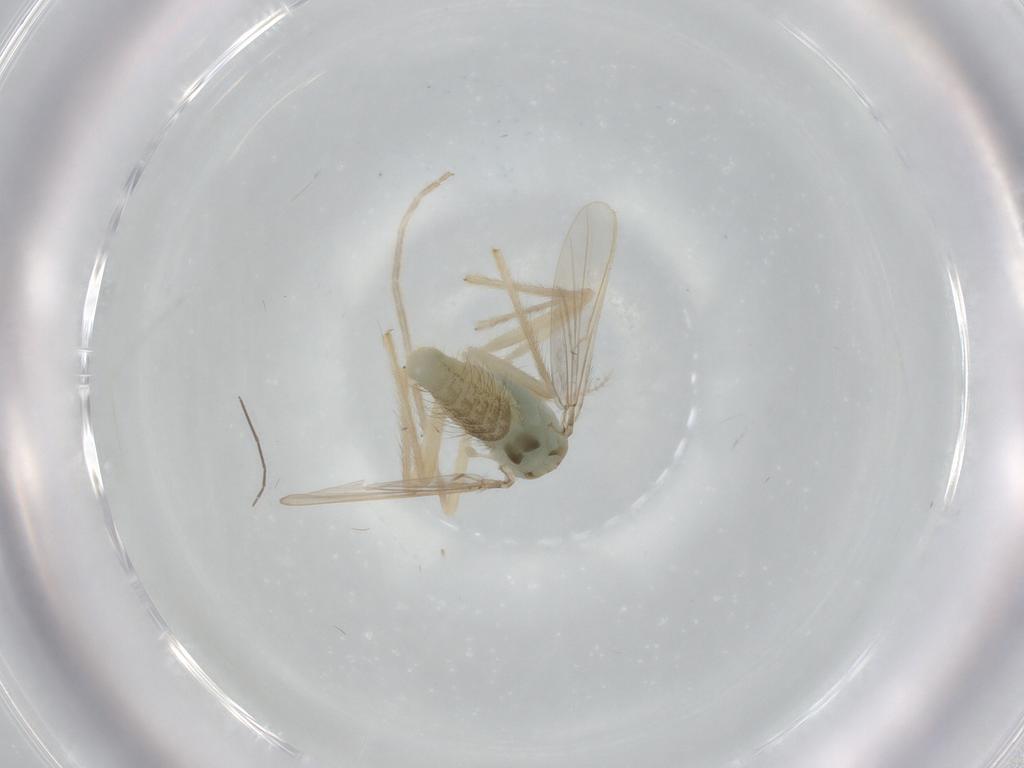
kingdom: Animalia
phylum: Arthropoda
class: Insecta
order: Diptera
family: Chironomidae
